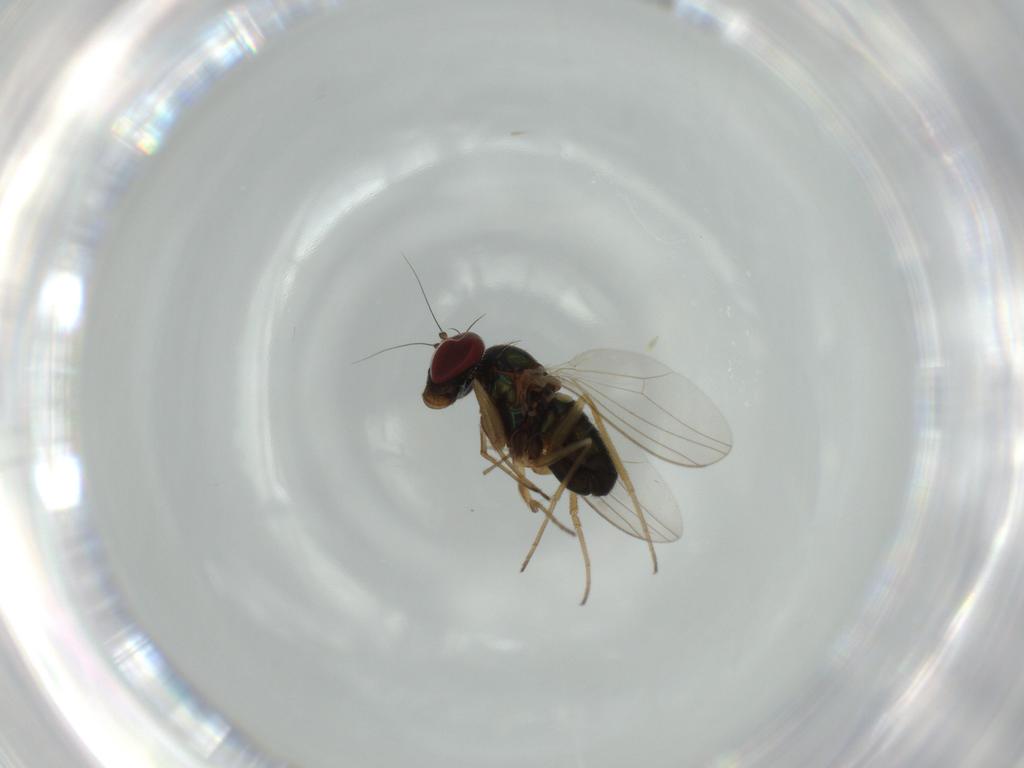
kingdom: Animalia
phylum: Arthropoda
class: Insecta
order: Diptera
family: Dolichopodidae
